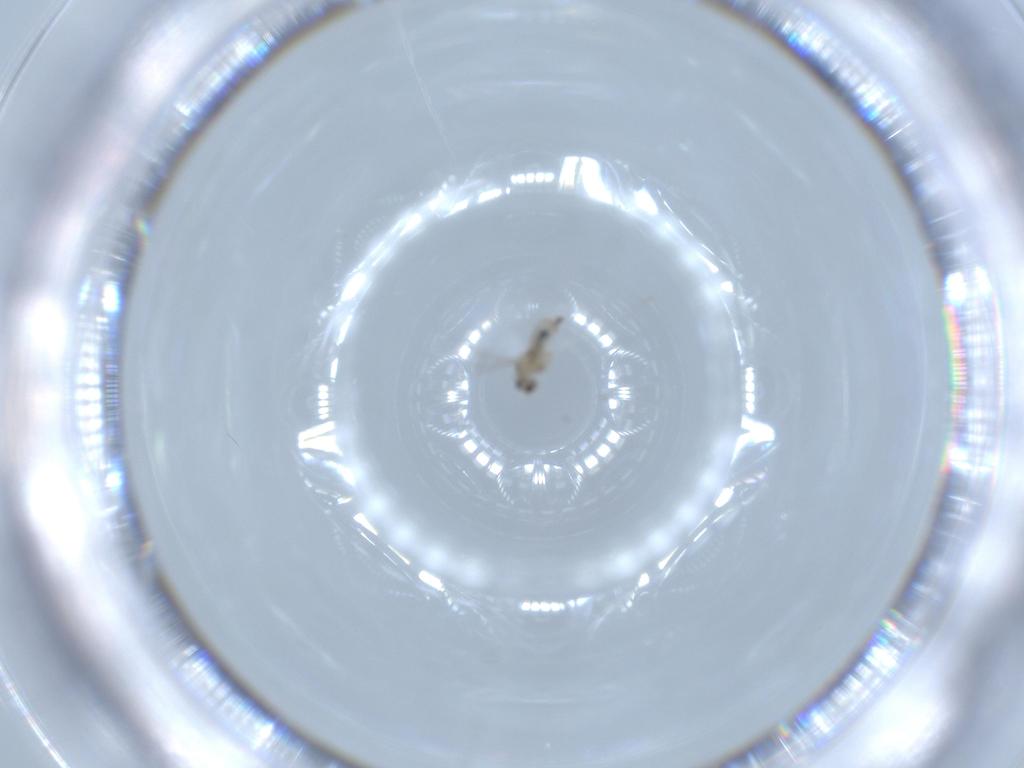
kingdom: Animalia
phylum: Arthropoda
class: Insecta
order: Diptera
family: Cecidomyiidae
